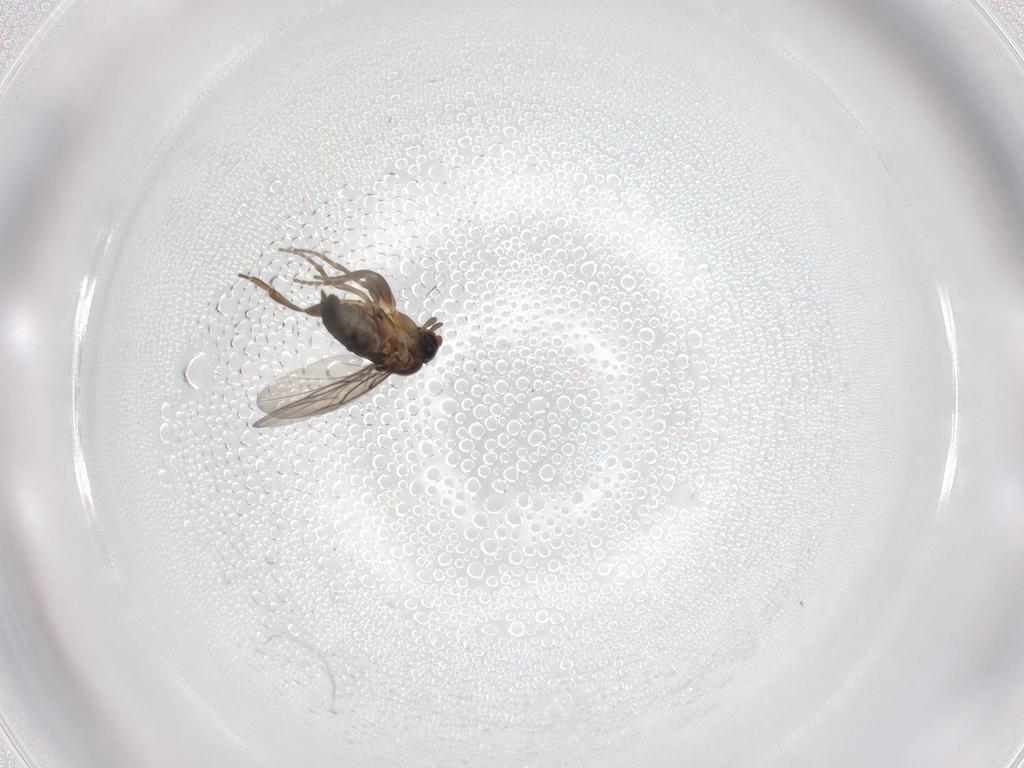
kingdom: Animalia
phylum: Arthropoda
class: Insecta
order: Diptera
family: Cecidomyiidae
